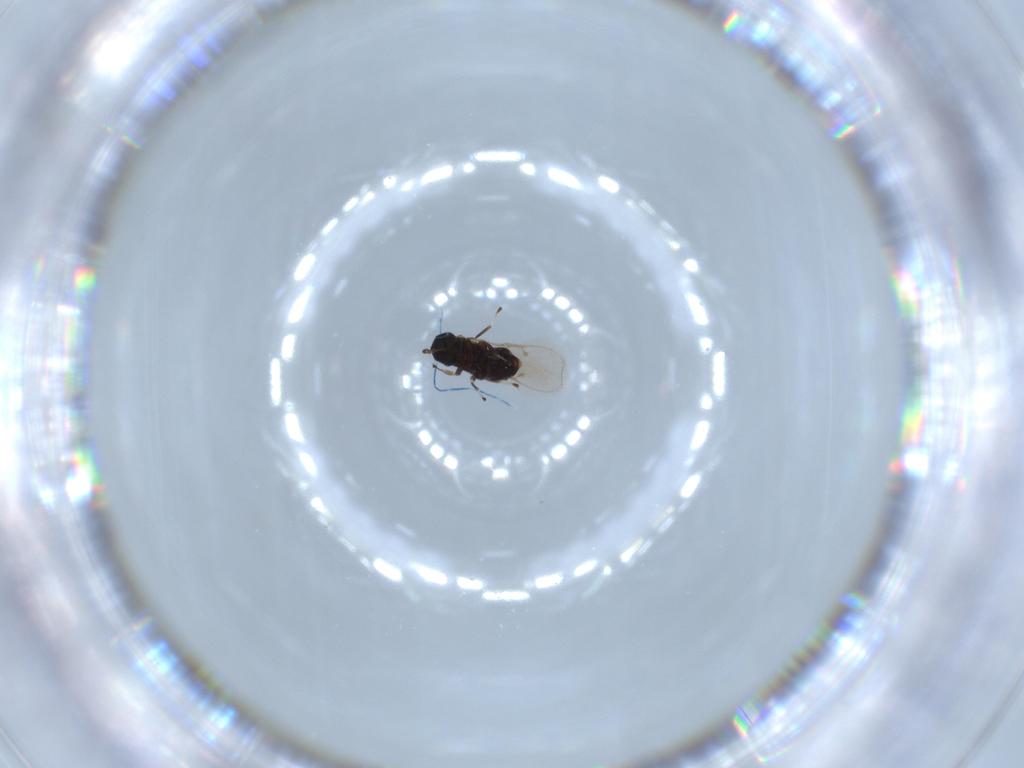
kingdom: Animalia
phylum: Arthropoda
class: Insecta
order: Hymenoptera
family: Eulophidae
